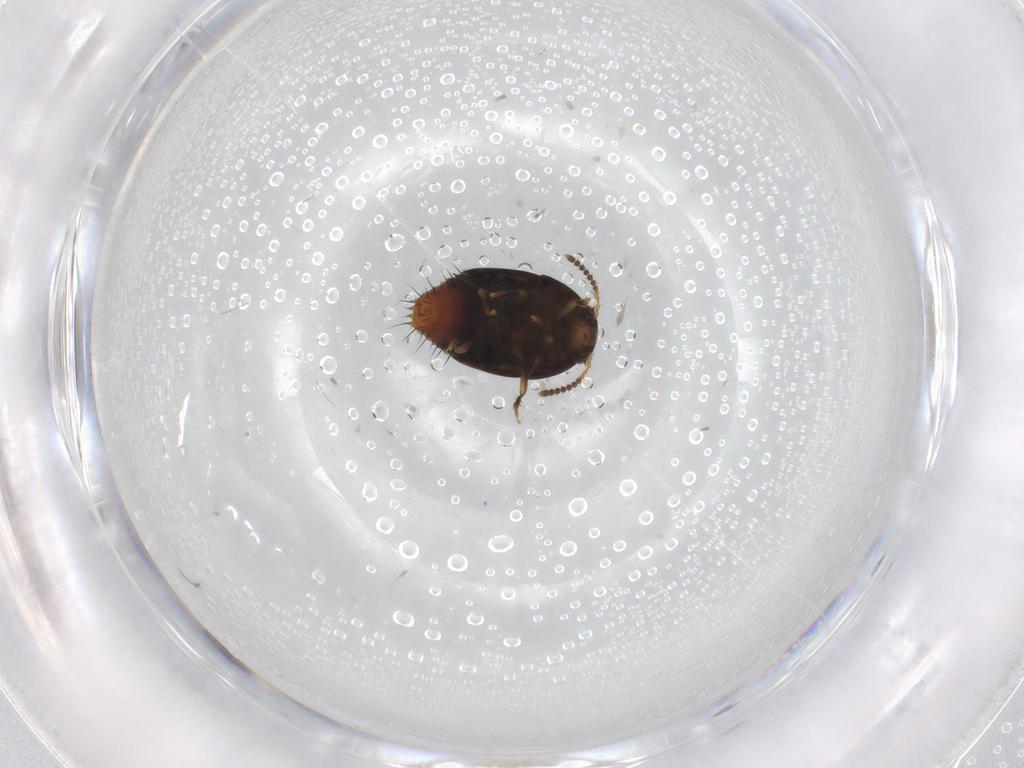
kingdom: Animalia
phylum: Arthropoda
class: Insecta
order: Coleoptera
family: Staphylinidae
